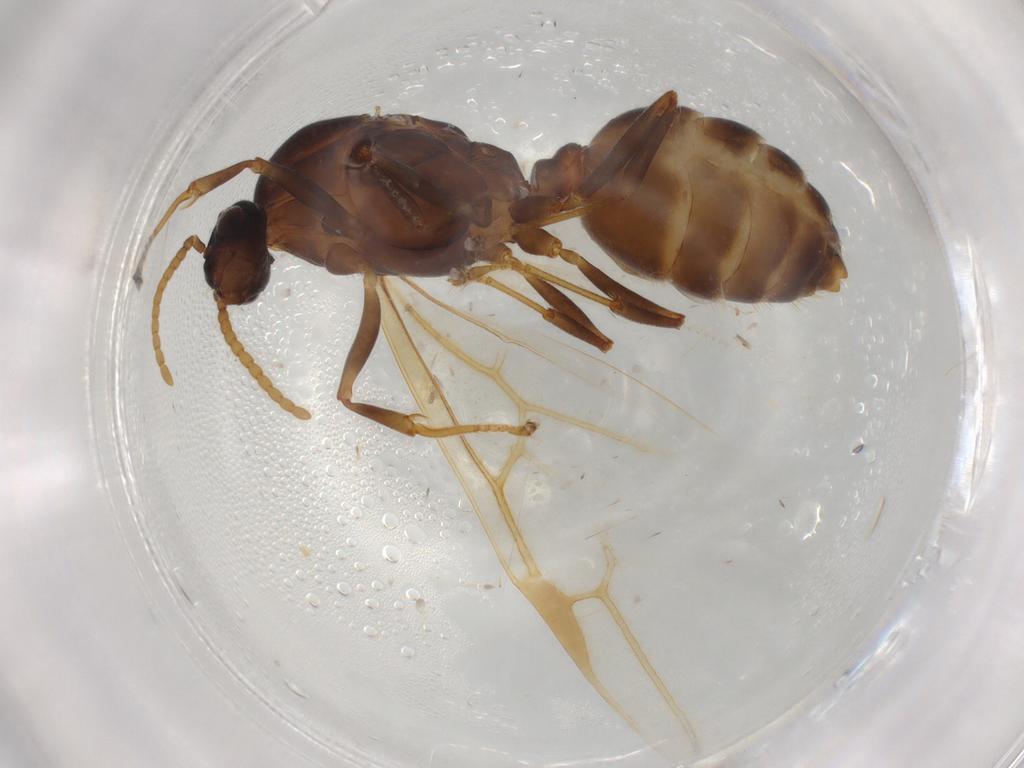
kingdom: Animalia
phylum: Arthropoda
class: Insecta
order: Hymenoptera
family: Formicidae
